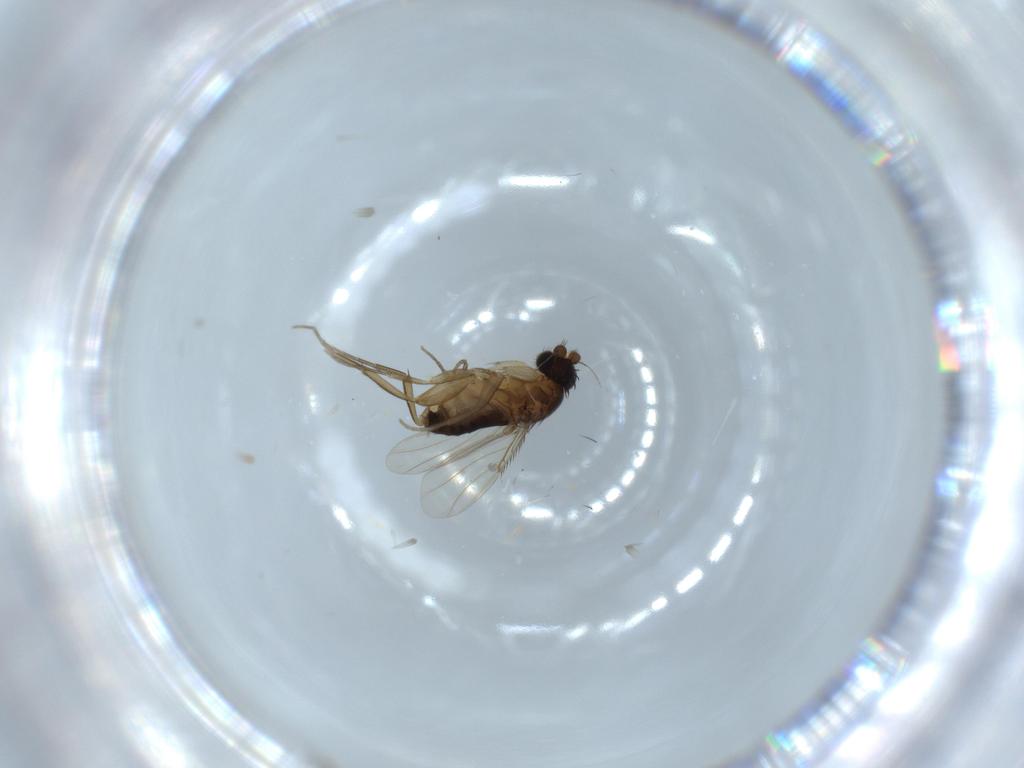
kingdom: Animalia
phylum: Arthropoda
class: Insecta
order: Diptera
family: Phoridae
